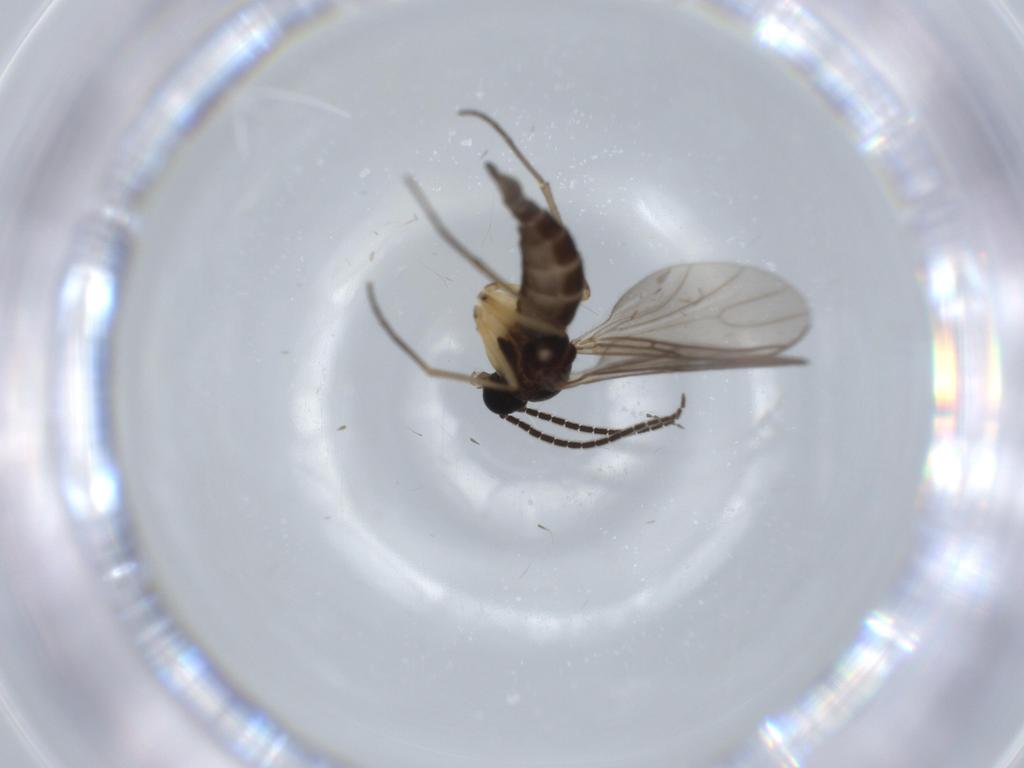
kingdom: Animalia
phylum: Arthropoda
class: Insecta
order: Diptera
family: Sciaridae
